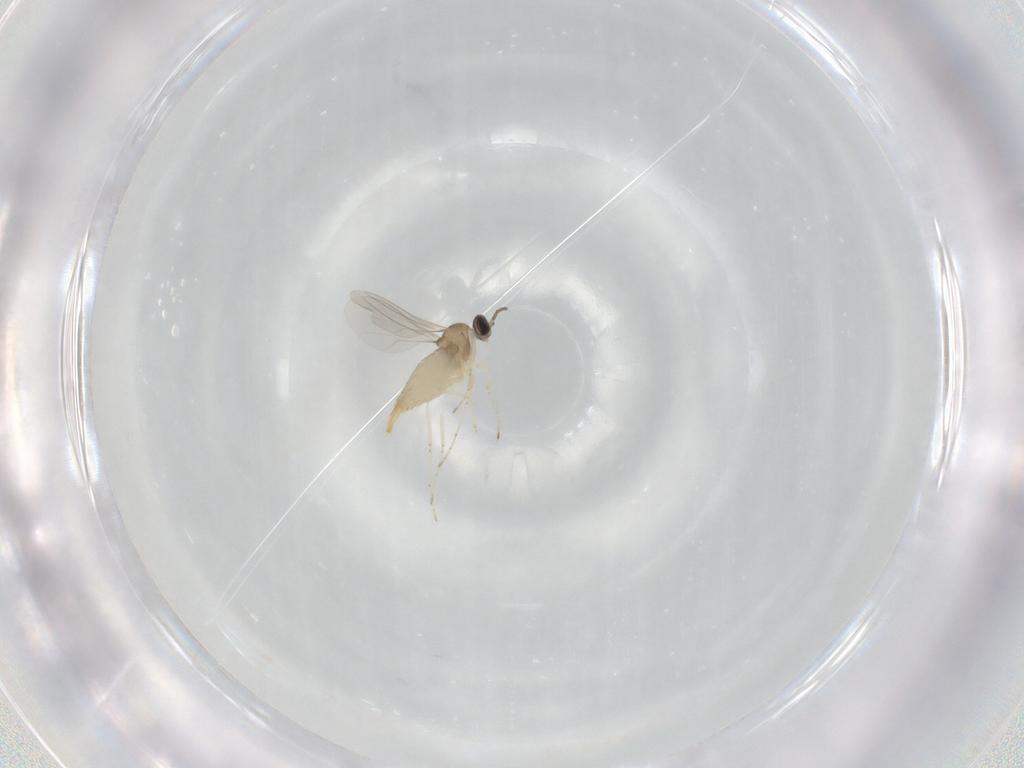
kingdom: Animalia
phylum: Arthropoda
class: Insecta
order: Diptera
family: Cecidomyiidae
